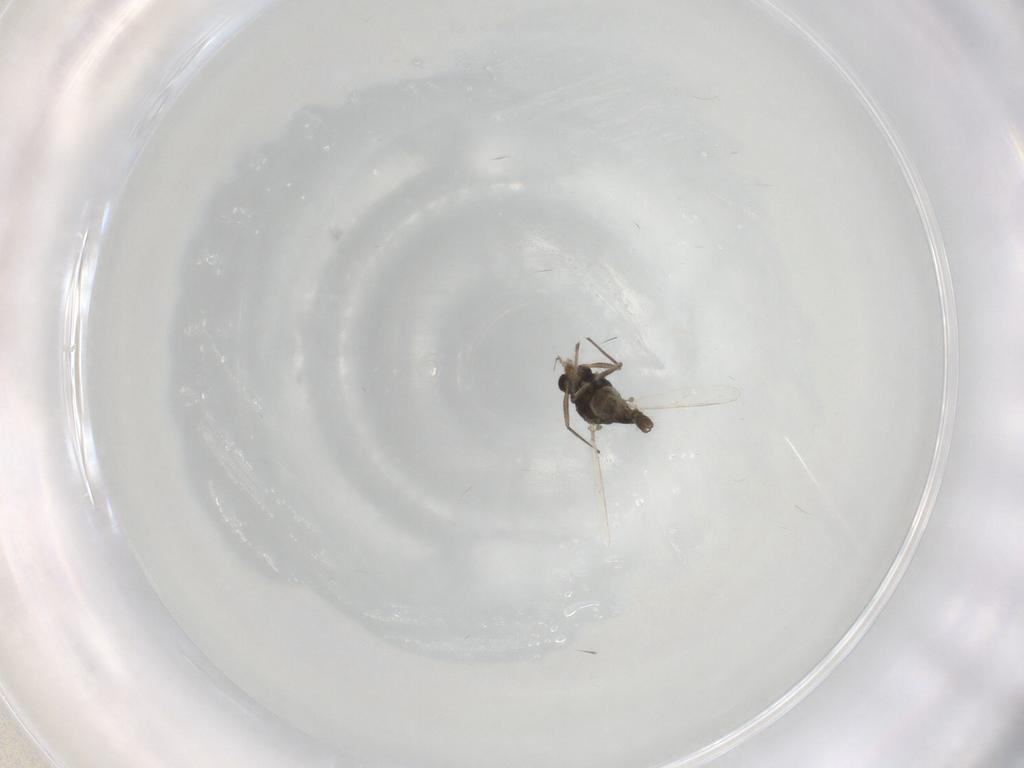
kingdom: Animalia
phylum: Arthropoda
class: Insecta
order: Diptera
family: Chironomidae
